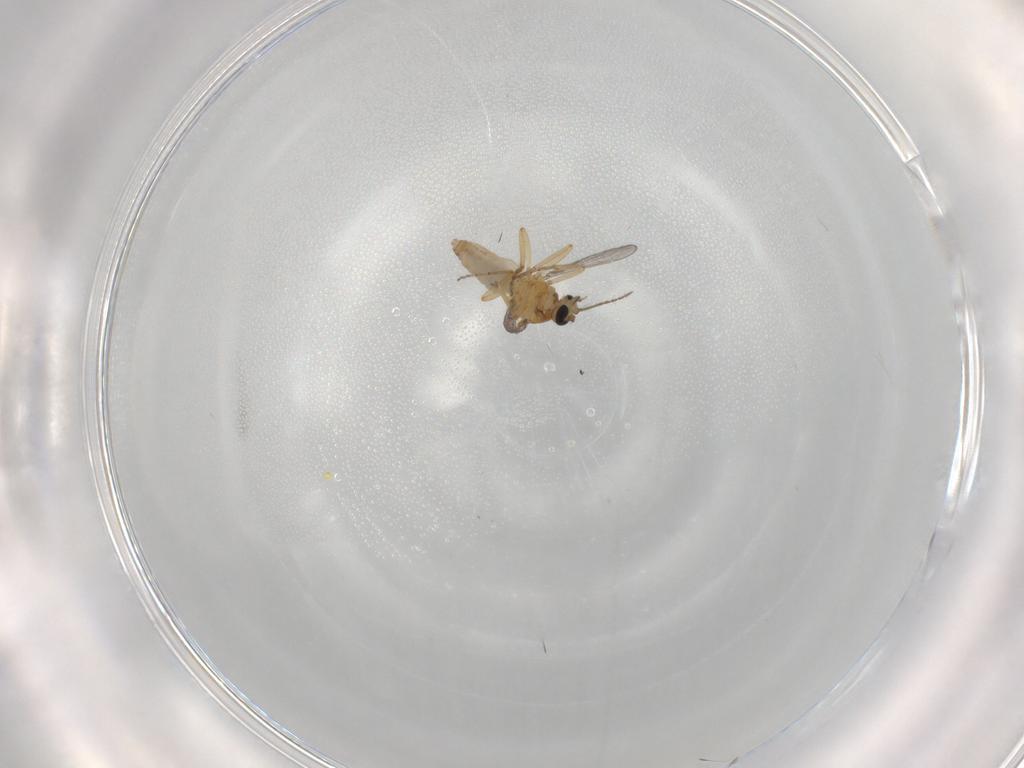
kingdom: Animalia
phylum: Arthropoda
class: Insecta
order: Diptera
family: Ceratopogonidae
